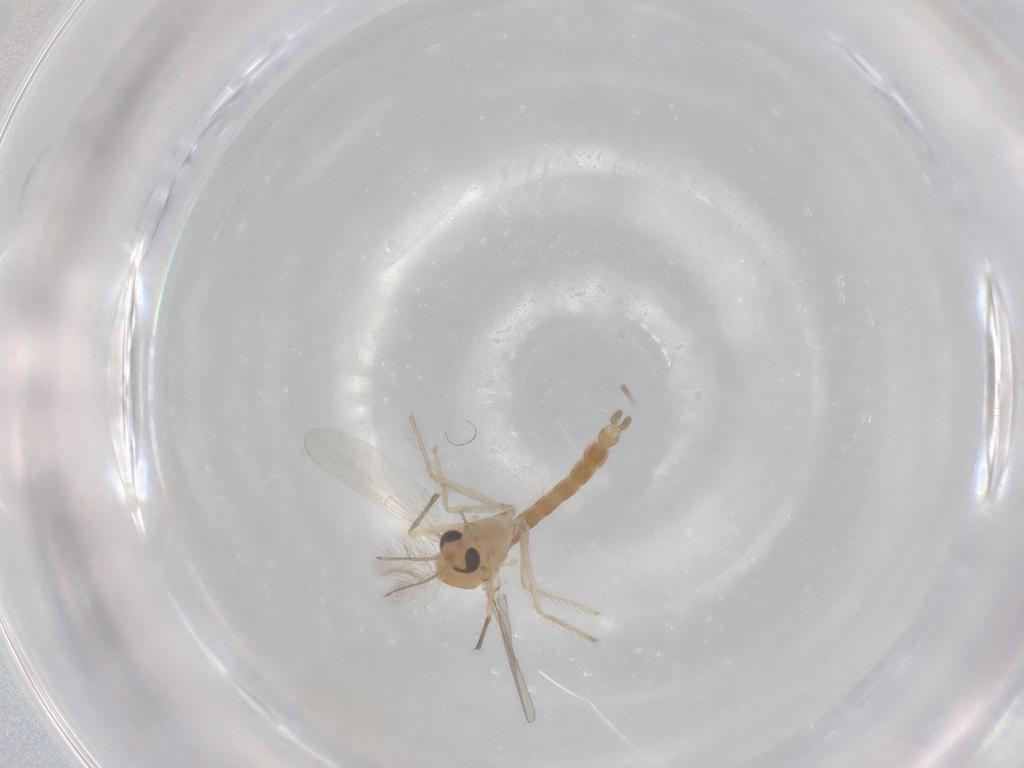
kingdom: Animalia
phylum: Arthropoda
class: Insecta
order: Diptera
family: Chironomidae
